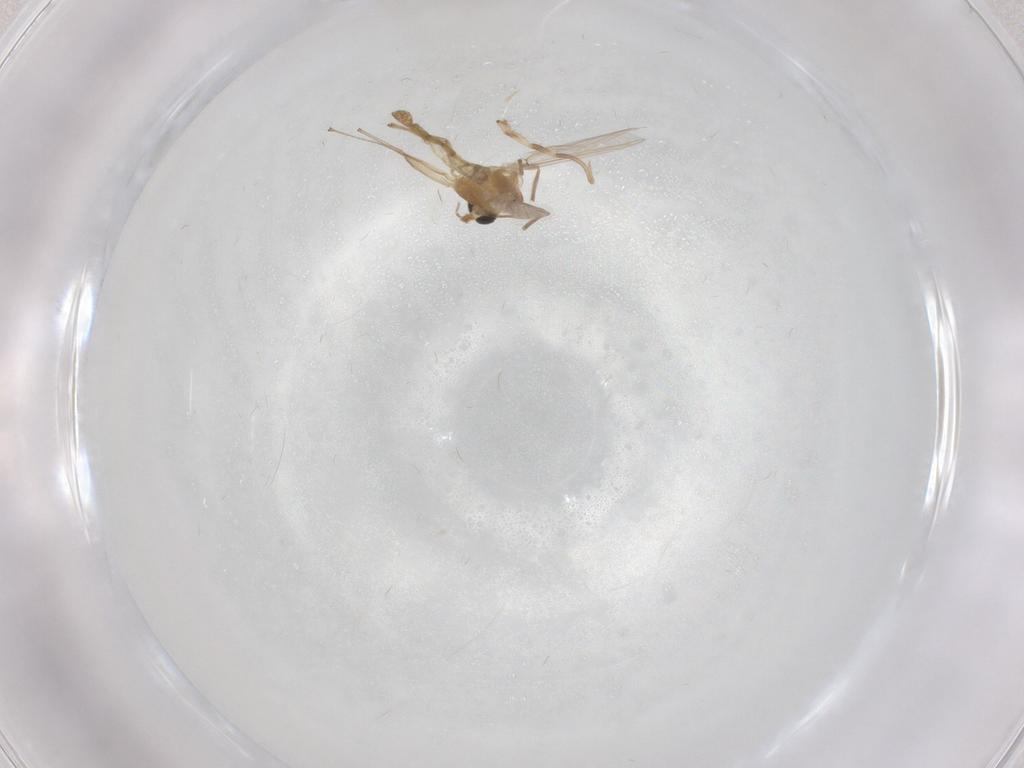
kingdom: Animalia
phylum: Arthropoda
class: Insecta
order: Diptera
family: Chironomidae
